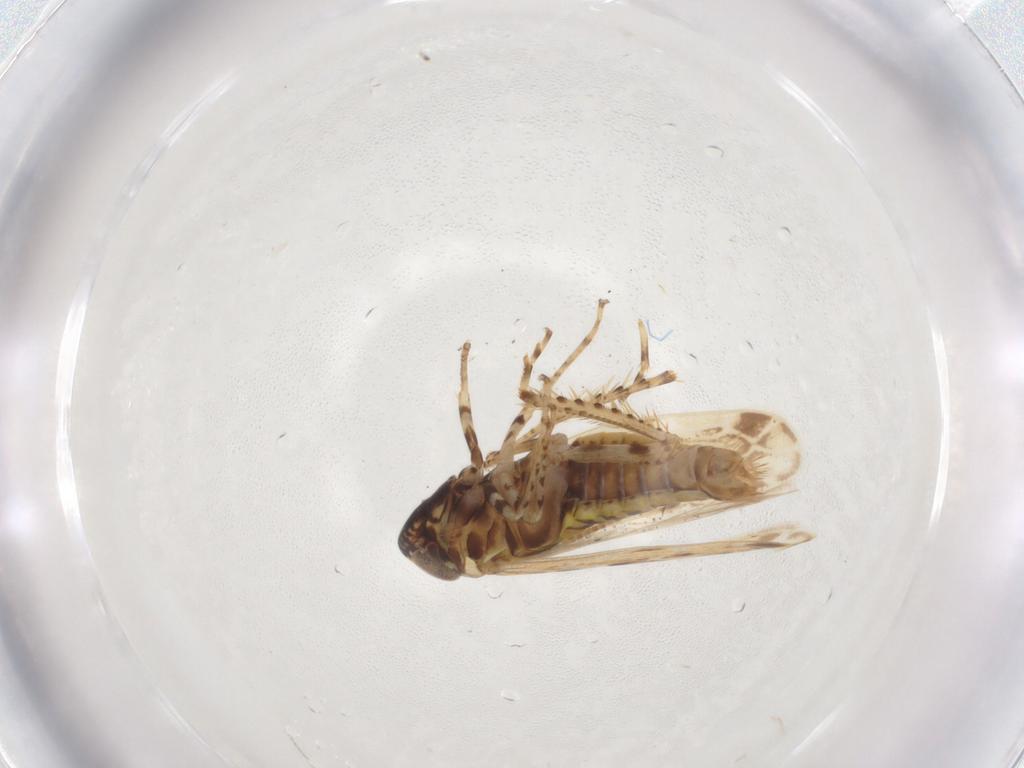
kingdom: Animalia
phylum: Arthropoda
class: Insecta
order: Hemiptera
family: Cicadellidae
